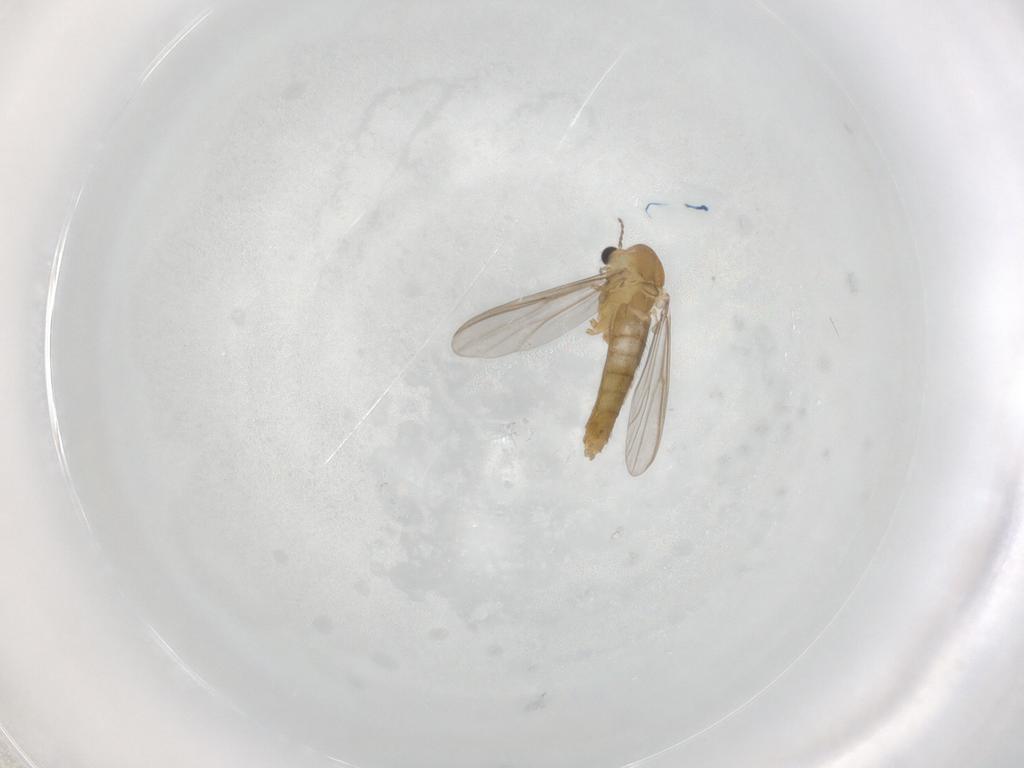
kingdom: Animalia
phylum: Arthropoda
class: Insecta
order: Diptera
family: Chironomidae
